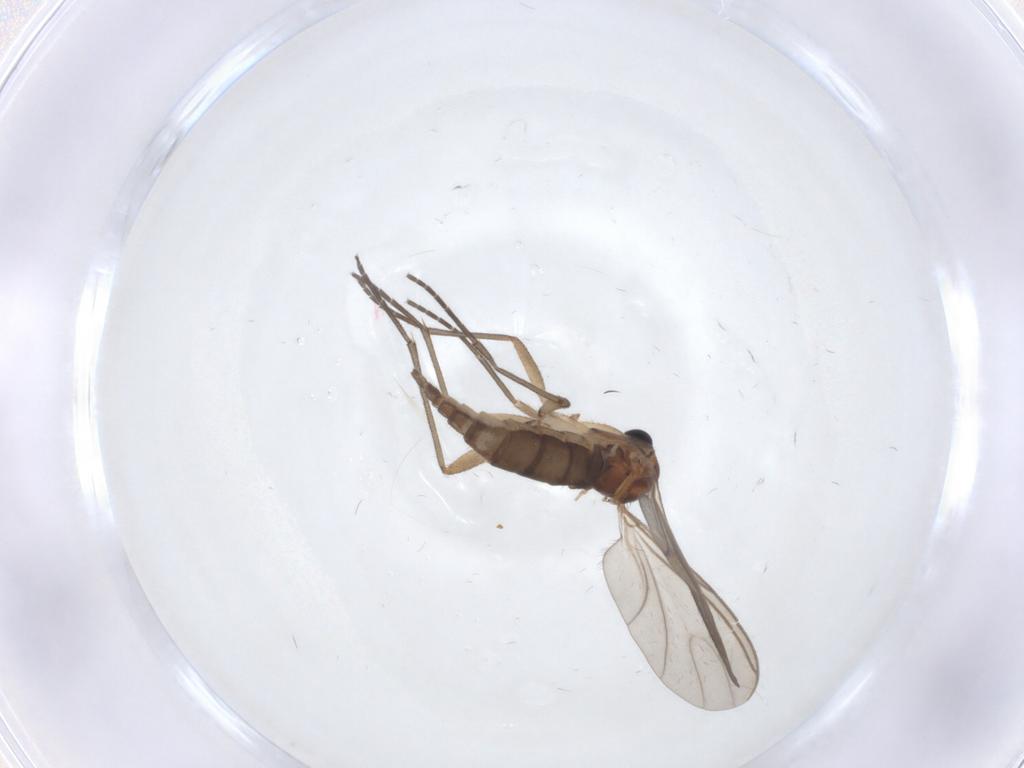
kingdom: Animalia
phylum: Arthropoda
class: Insecta
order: Diptera
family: Sciaridae
